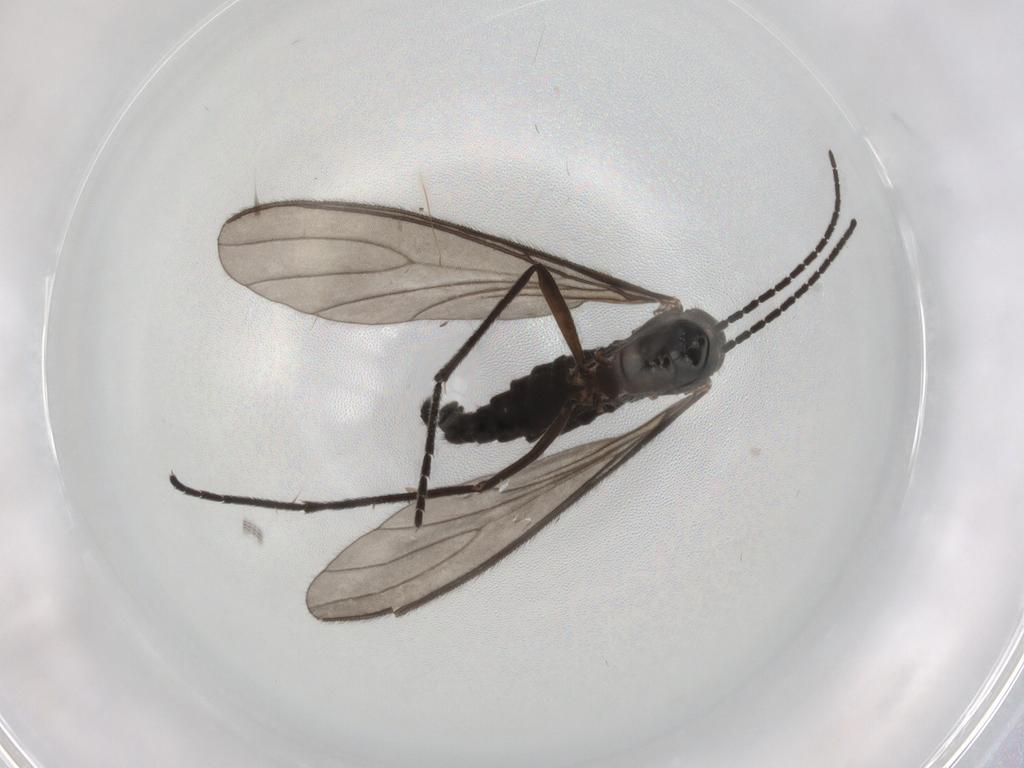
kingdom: Animalia
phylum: Arthropoda
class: Insecta
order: Diptera
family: Sciaridae
